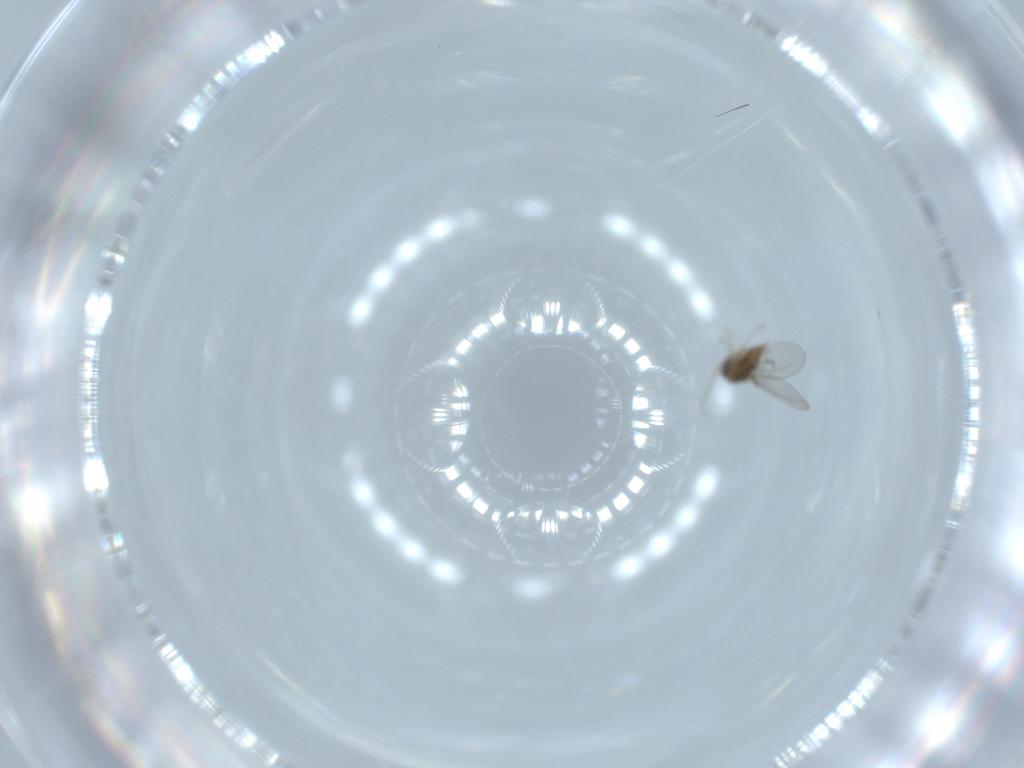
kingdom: Animalia
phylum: Arthropoda
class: Insecta
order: Diptera
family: Cecidomyiidae
